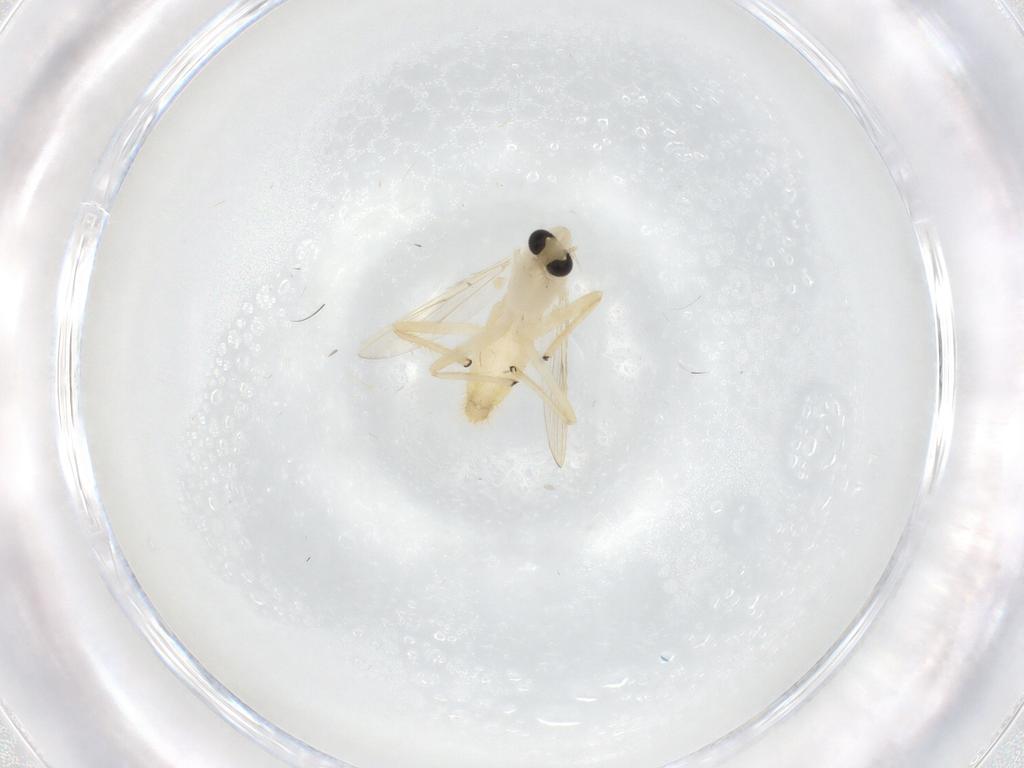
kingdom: Animalia
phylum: Arthropoda
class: Insecta
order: Diptera
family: Chironomidae
